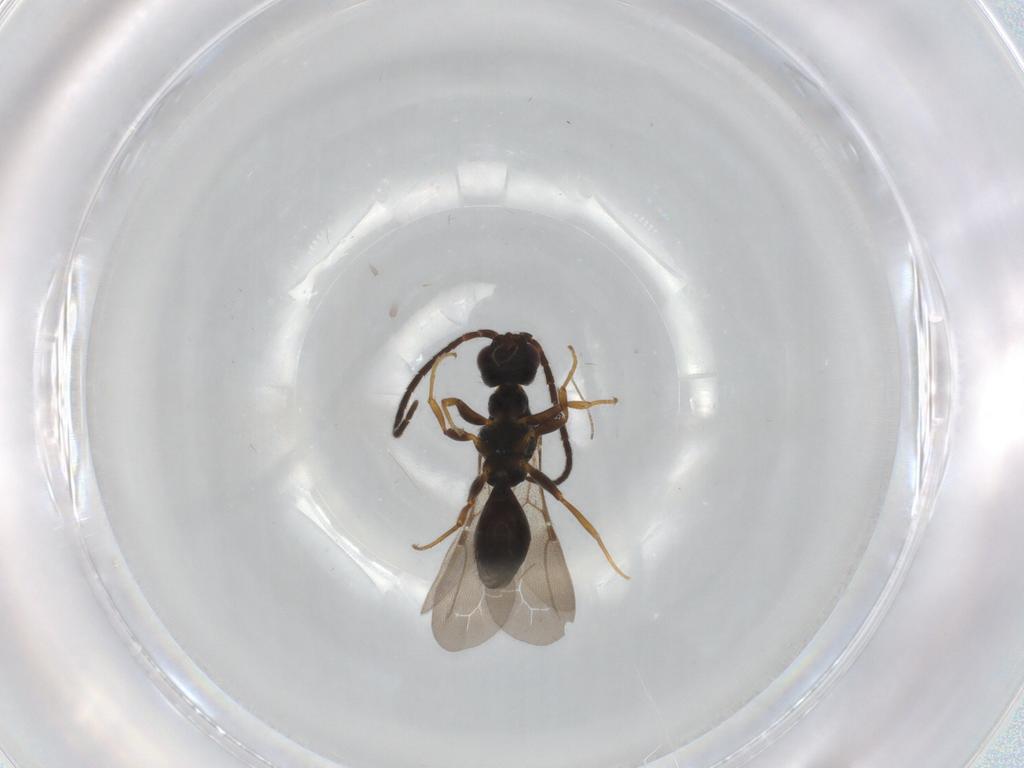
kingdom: Animalia
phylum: Arthropoda
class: Insecta
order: Hymenoptera
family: Bethylidae
